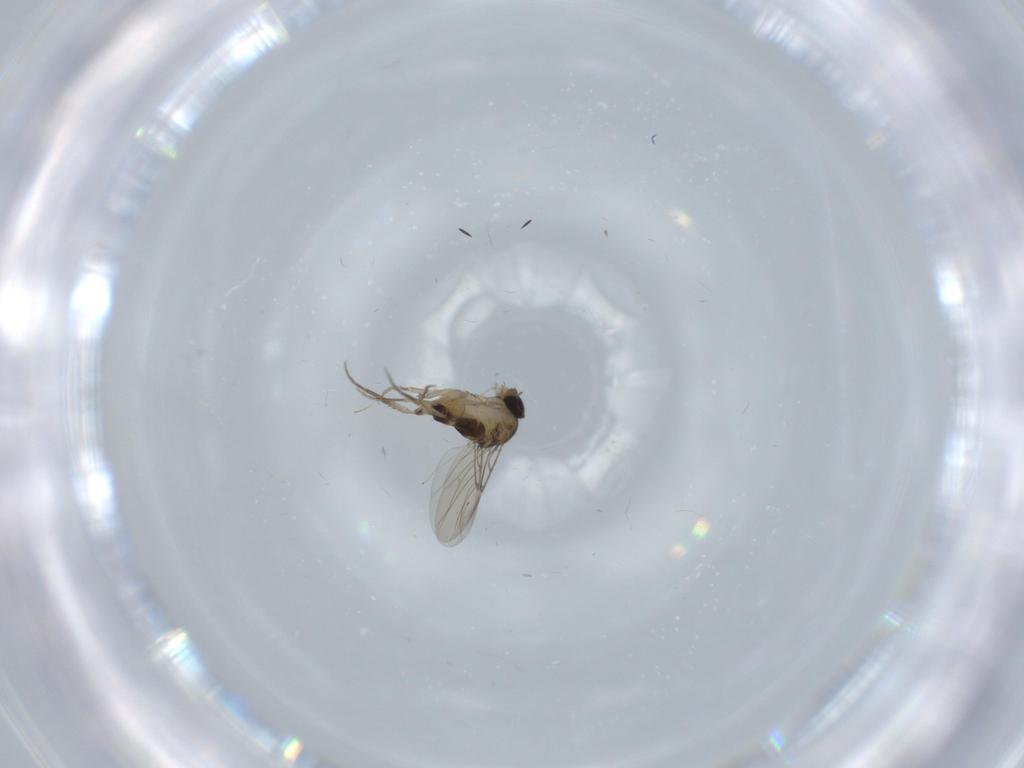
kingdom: Animalia
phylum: Arthropoda
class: Insecta
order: Diptera
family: Phoridae
